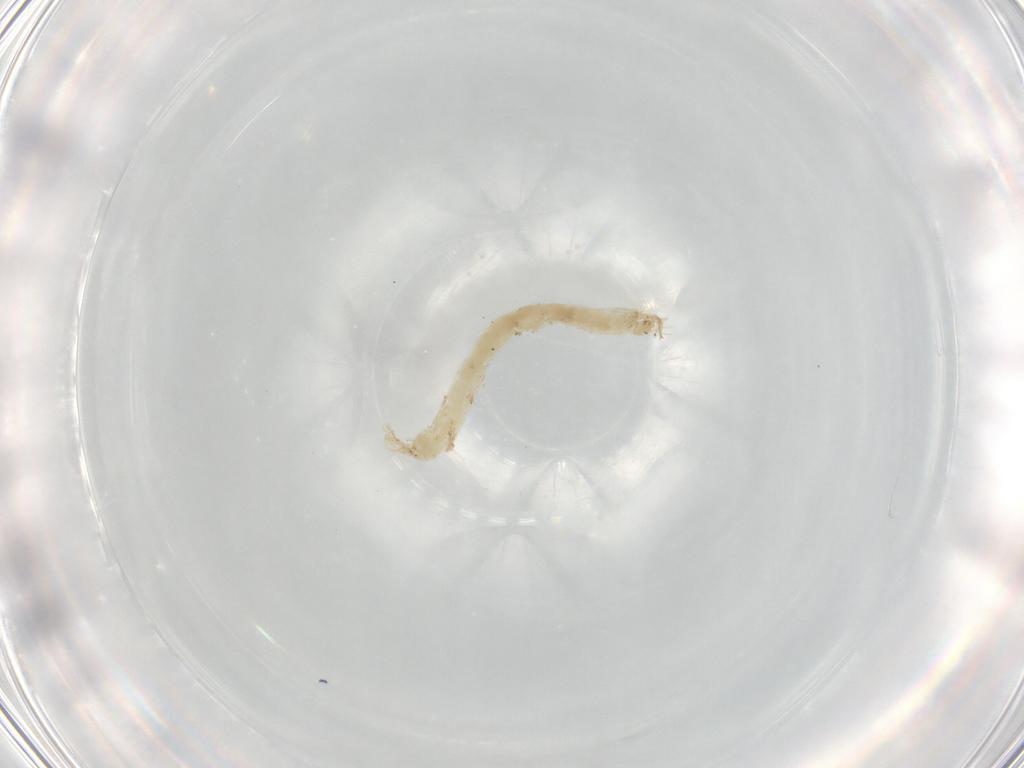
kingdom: Animalia
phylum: Arthropoda
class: Insecta
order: Diptera
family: Chironomidae
